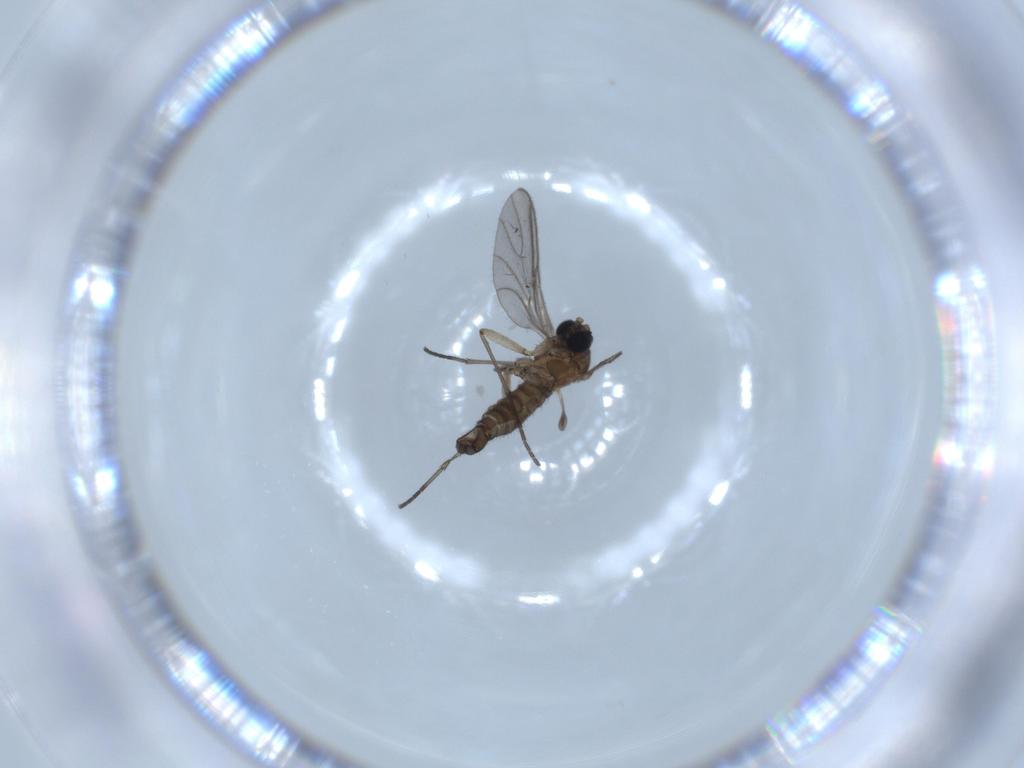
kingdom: Animalia
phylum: Arthropoda
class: Insecta
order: Diptera
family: Sciaridae
